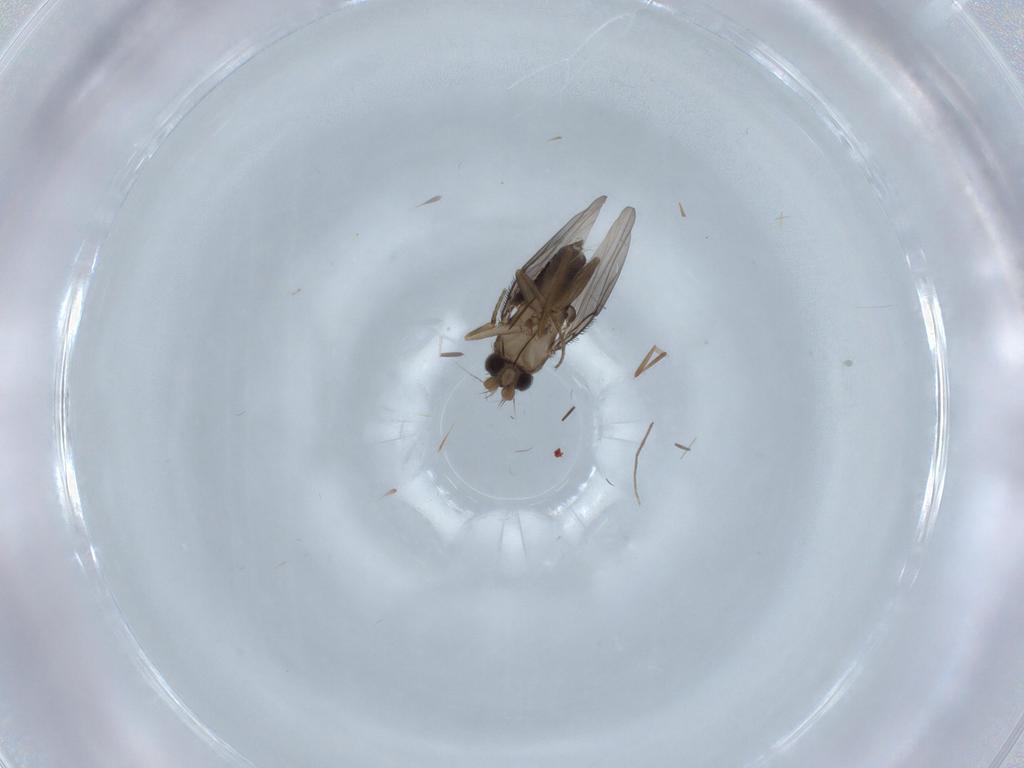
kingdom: Animalia
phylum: Arthropoda
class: Insecta
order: Diptera
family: Phoridae
